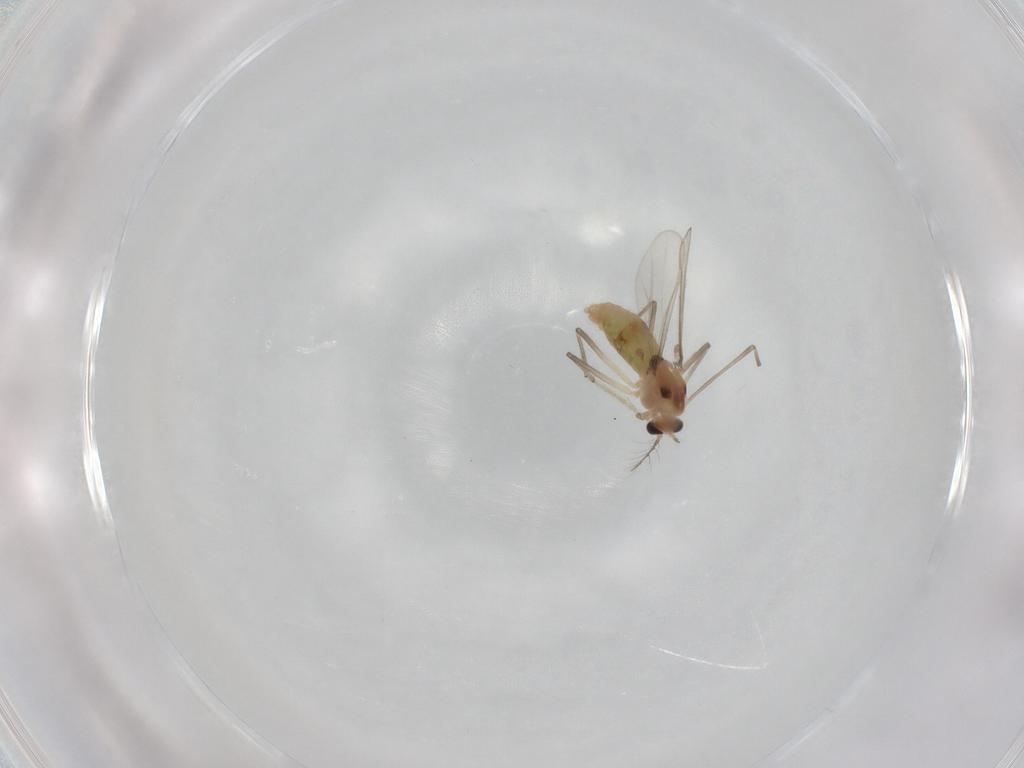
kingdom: Animalia
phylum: Arthropoda
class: Insecta
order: Diptera
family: Chironomidae
